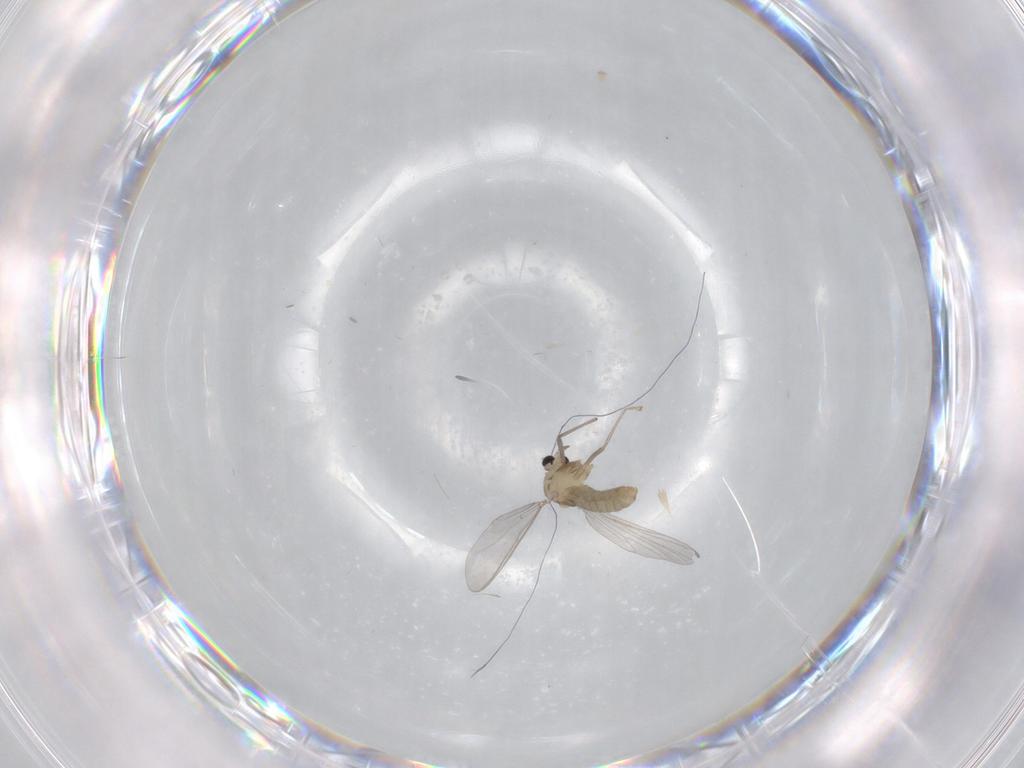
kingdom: Animalia
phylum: Arthropoda
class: Insecta
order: Diptera
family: Chironomidae
